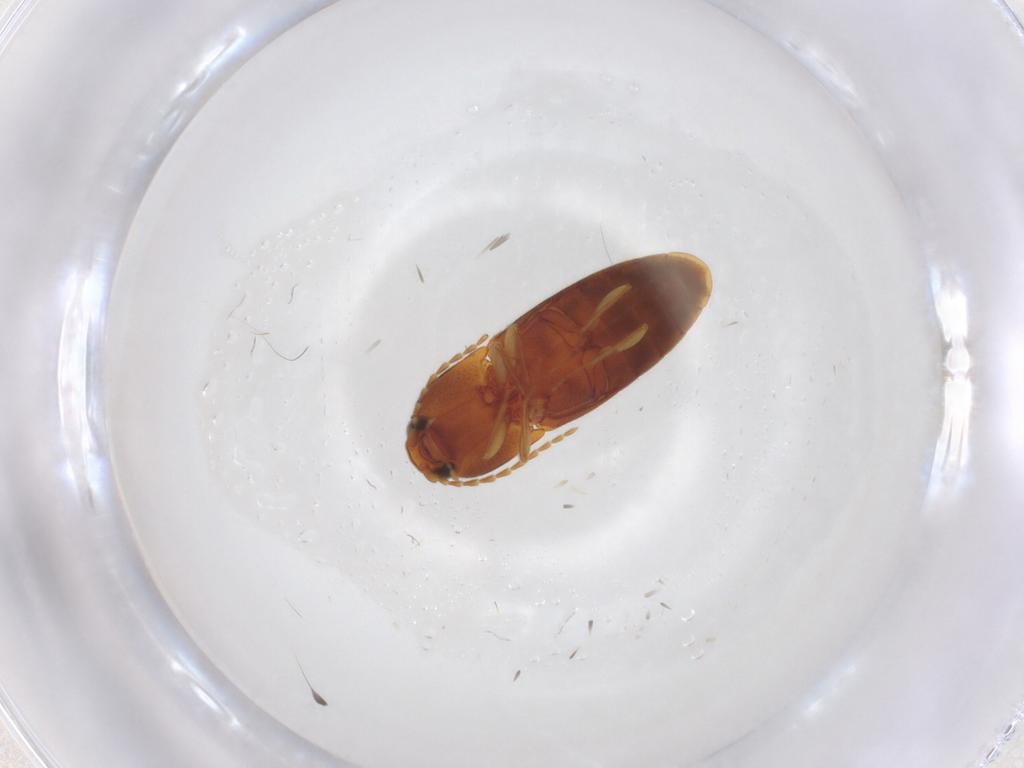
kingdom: Animalia
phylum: Arthropoda
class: Insecta
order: Coleoptera
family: Elateridae
